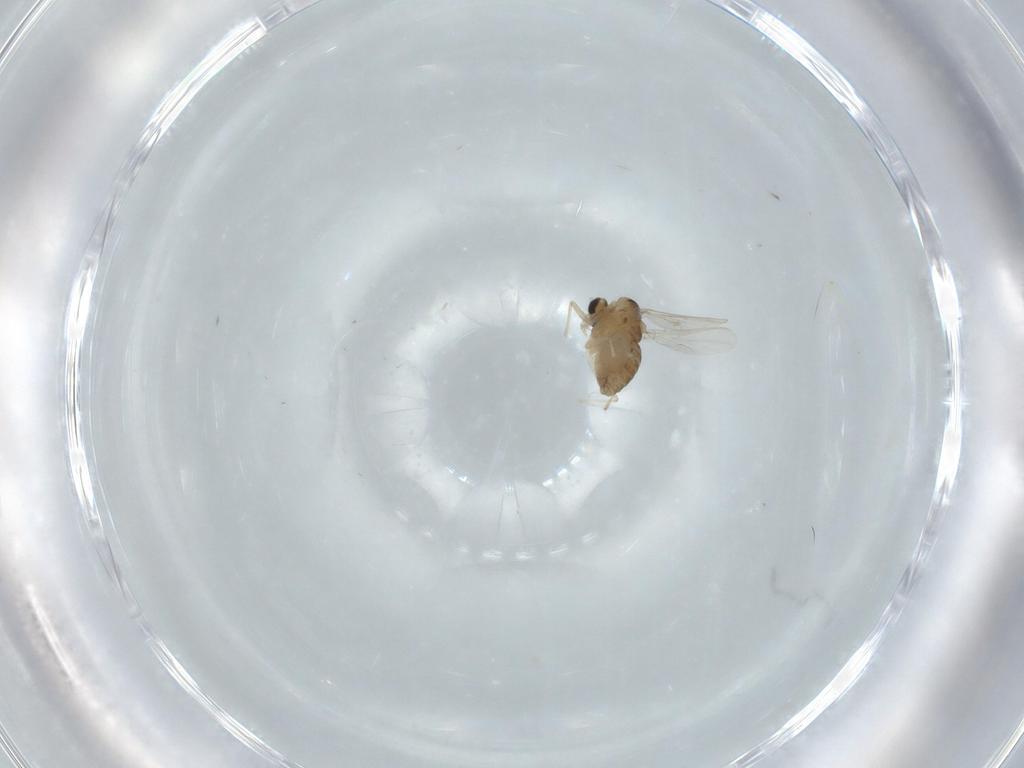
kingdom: Animalia
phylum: Arthropoda
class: Insecta
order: Diptera
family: Chironomidae
